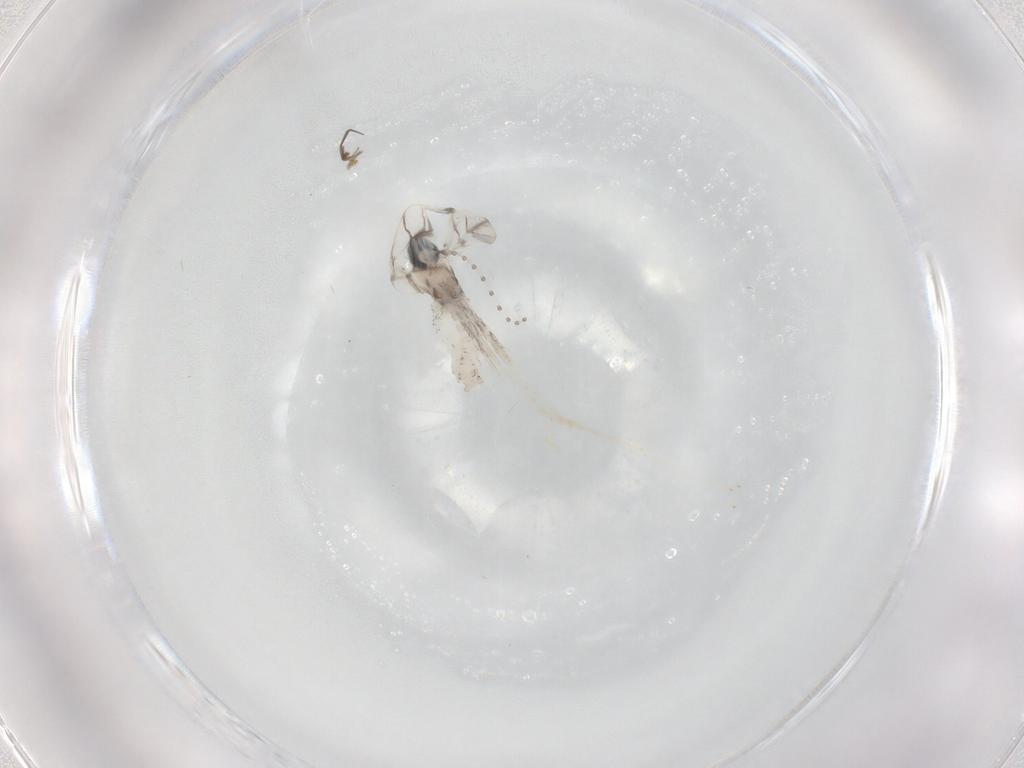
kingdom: Animalia
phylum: Arthropoda
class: Insecta
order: Diptera
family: Cecidomyiidae
